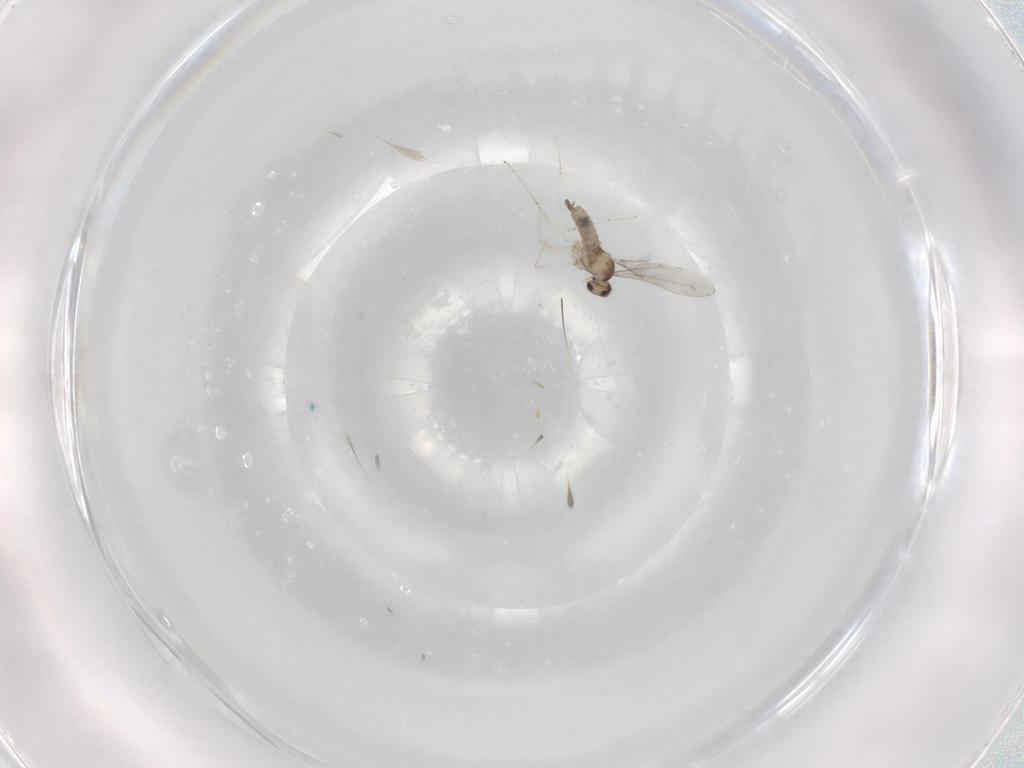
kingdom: Animalia
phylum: Arthropoda
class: Insecta
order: Diptera
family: Cecidomyiidae
